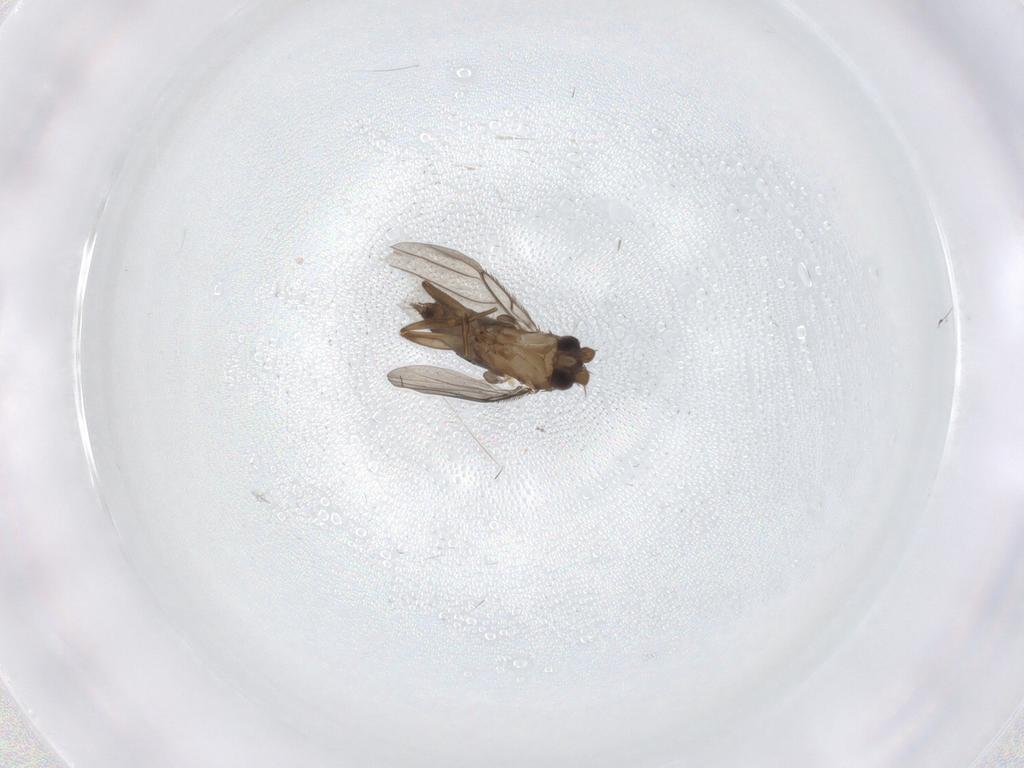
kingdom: Animalia
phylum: Arthropoda
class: Insecta
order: Diptera
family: Cecidomyiidae
